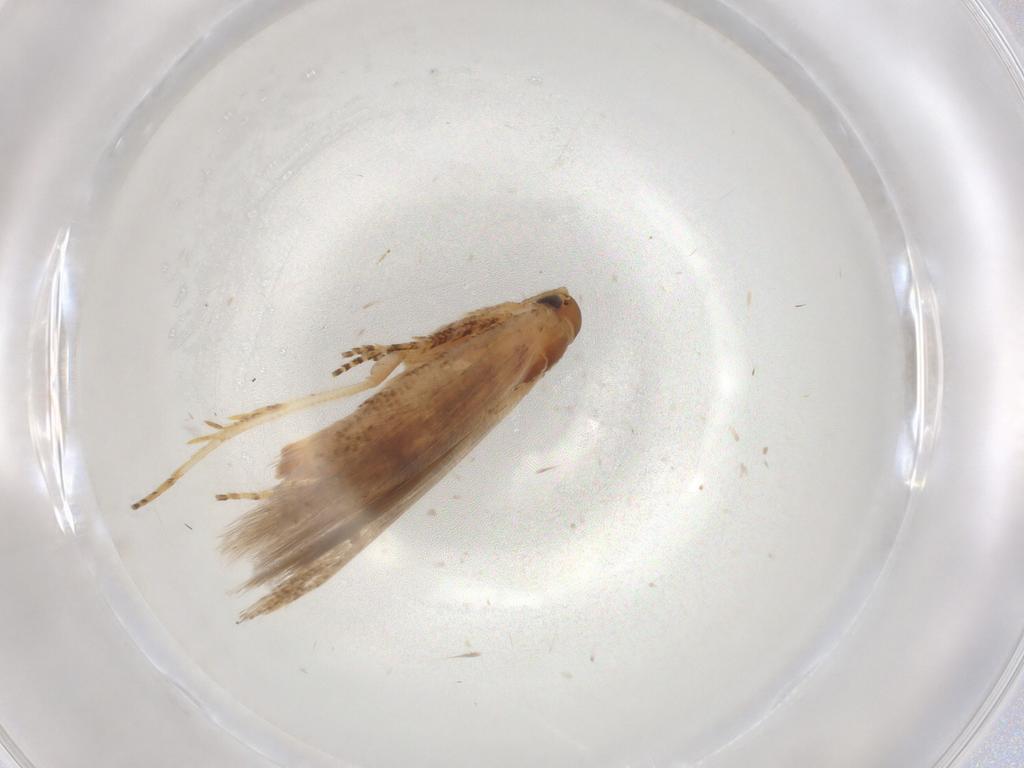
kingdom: Animalia
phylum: Arthropoda
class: Insecta
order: Lepidoptera
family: Gelechiidae
